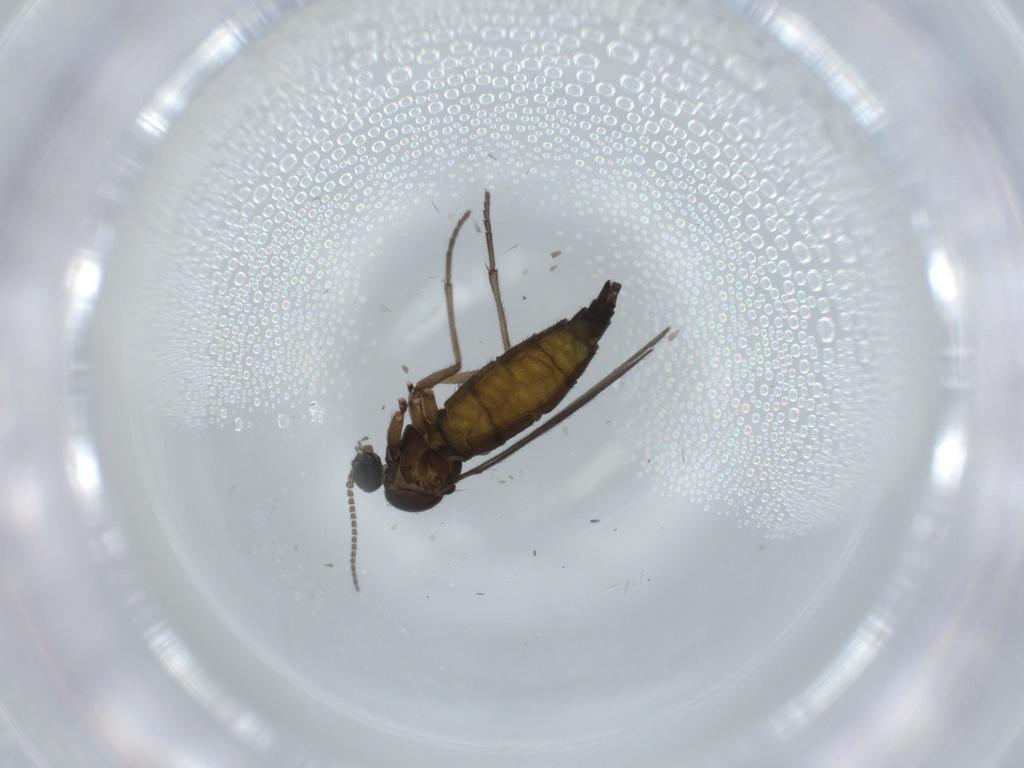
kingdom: Animalia
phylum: Arthropoda
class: Insecta
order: Diptera
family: Sciaridae
